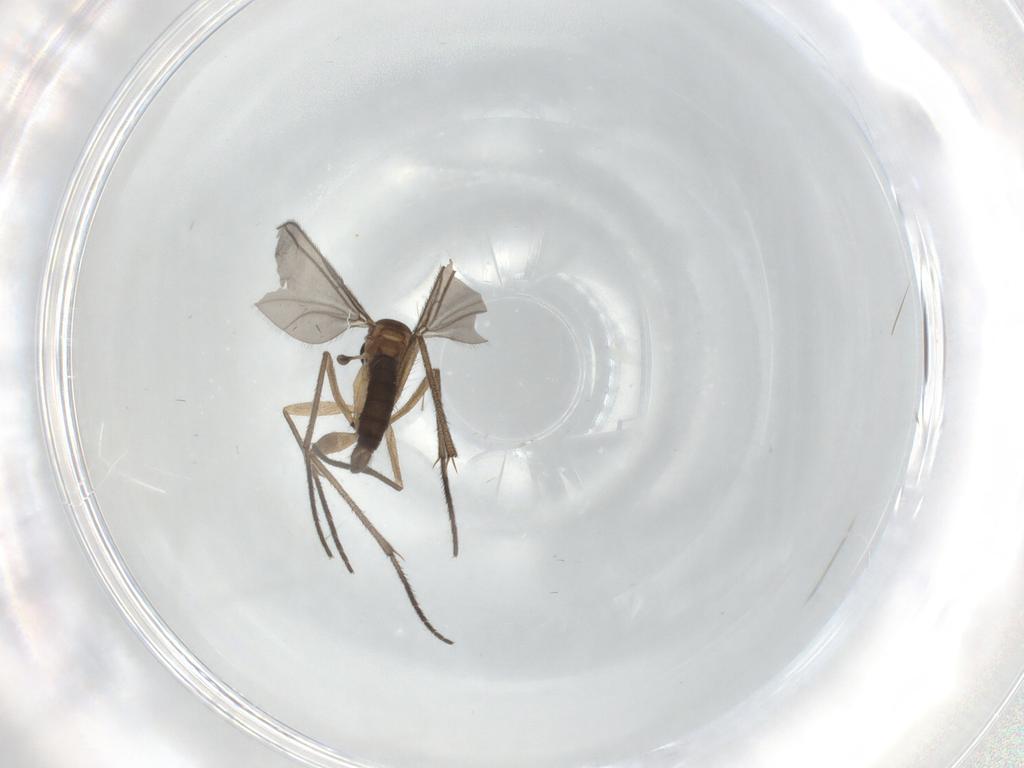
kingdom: Animalia
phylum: Arthropoda
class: Insecta
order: Diptera
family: Sciaridae
